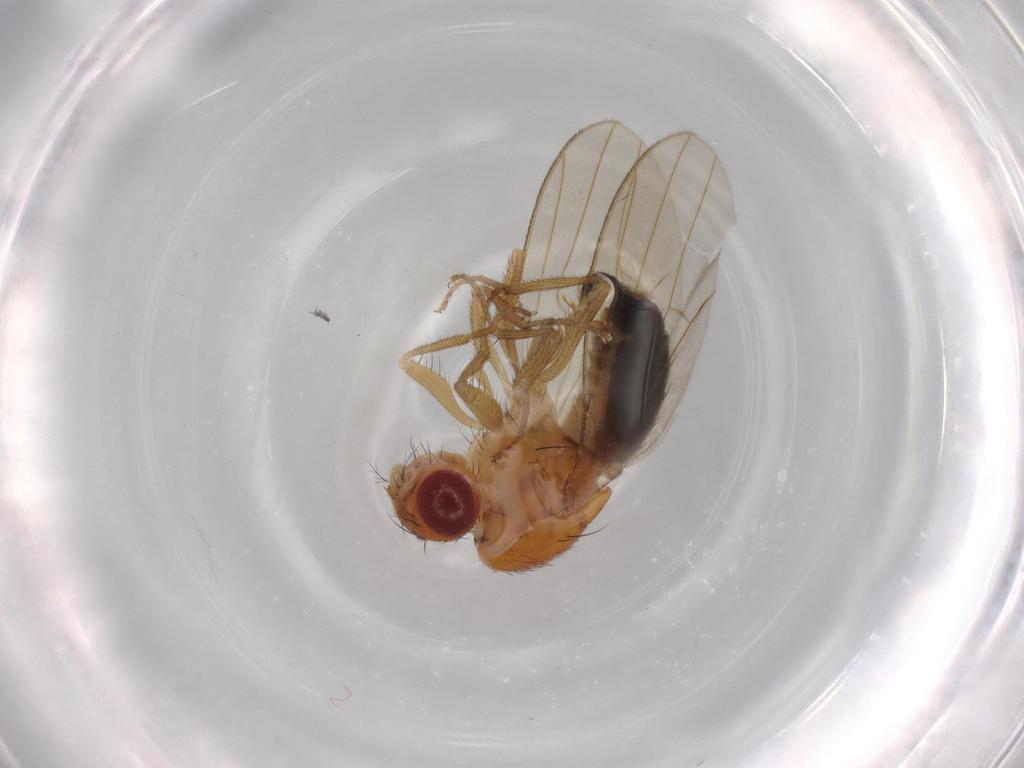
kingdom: Animalia
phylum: Arthropoda
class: Insecta
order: Diptera
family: Drosophilidae
